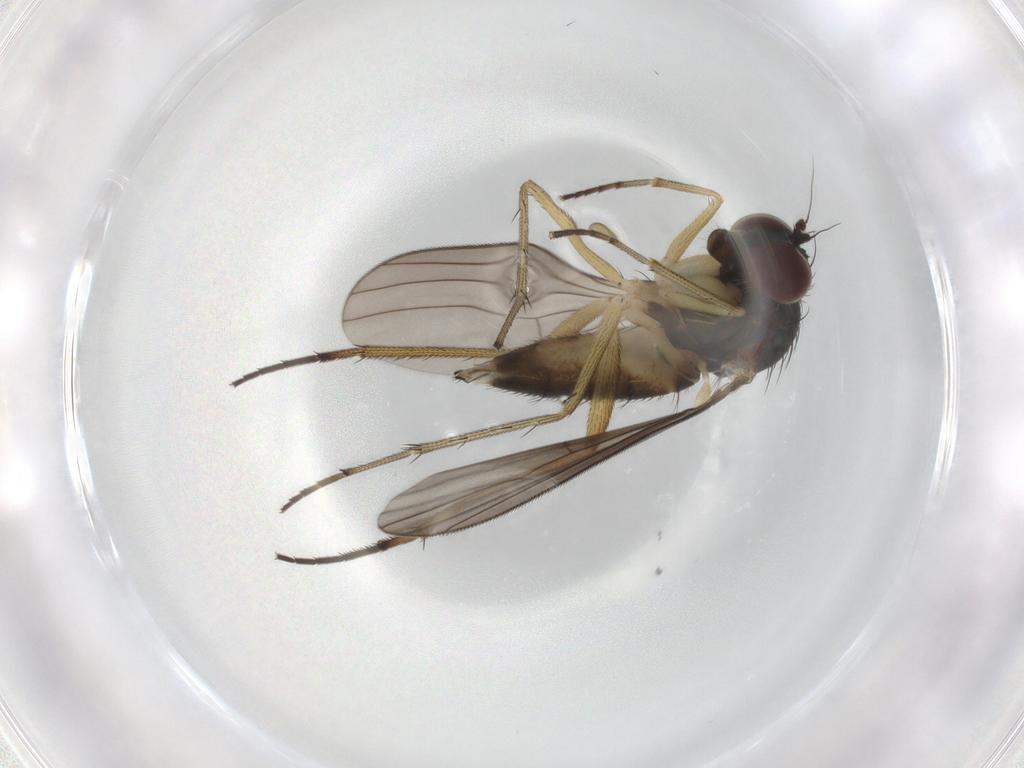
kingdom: Animalia
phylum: Arthropoda
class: Insecta
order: Diptera
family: Dolichopodidae
